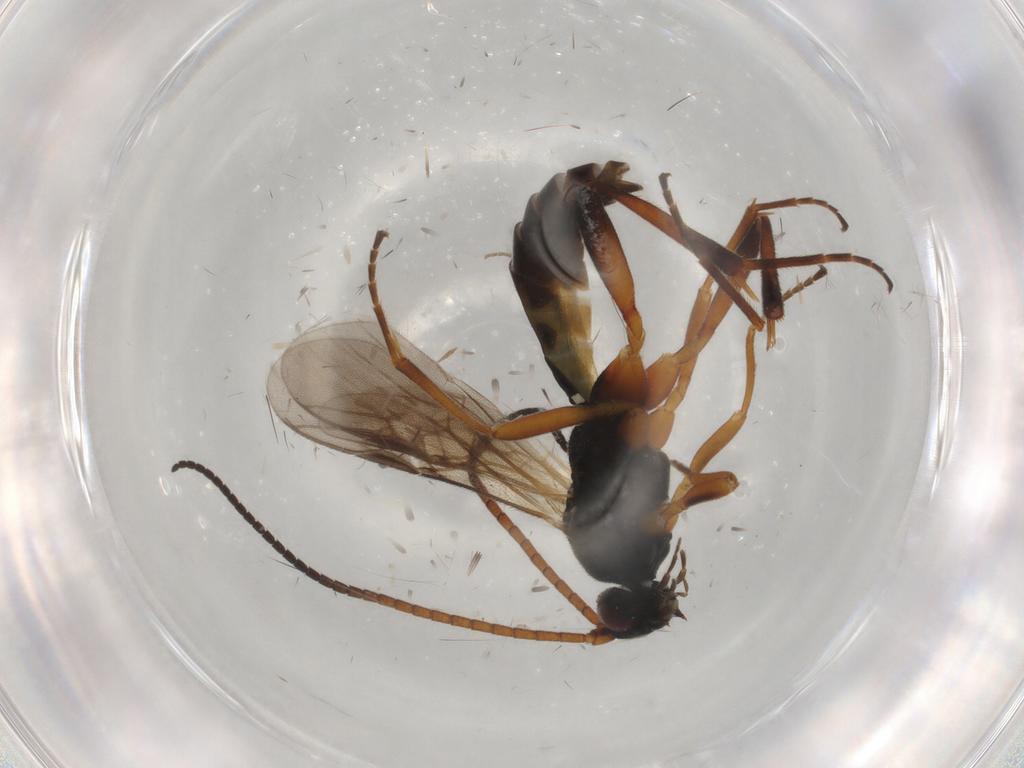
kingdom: Animalia
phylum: Arthropoda
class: Insecta
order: Hymenoptera
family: Braconidae
